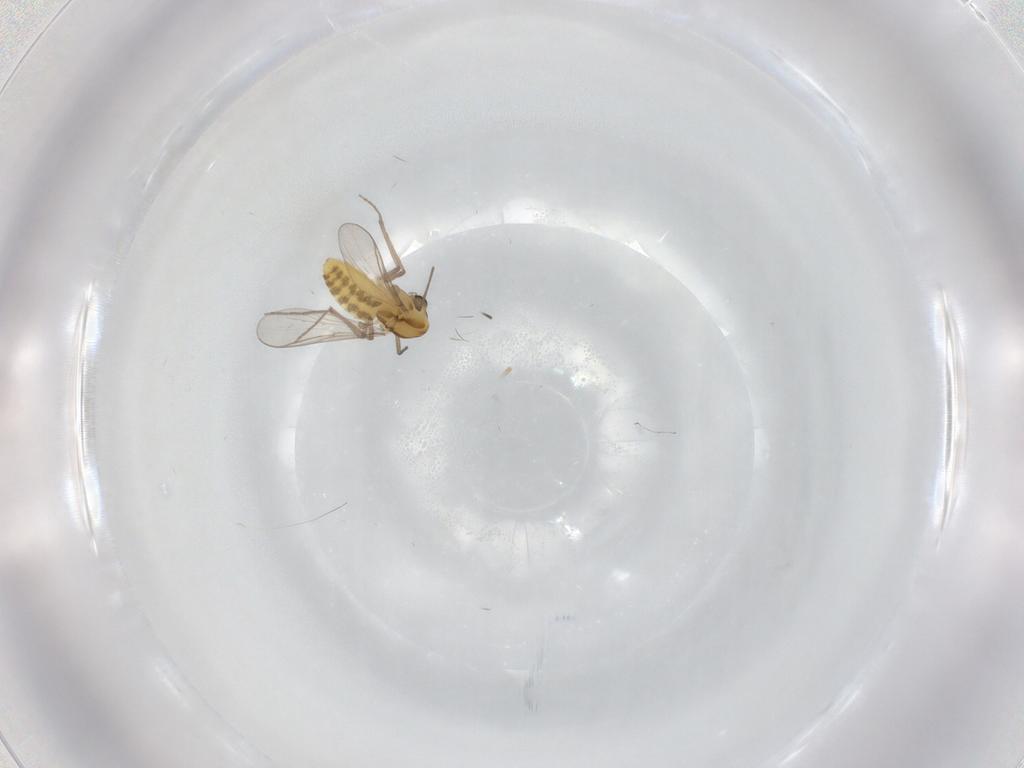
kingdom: Animalia
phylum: Arthropoda
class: Insecta
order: Diptera
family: Chironomidae
